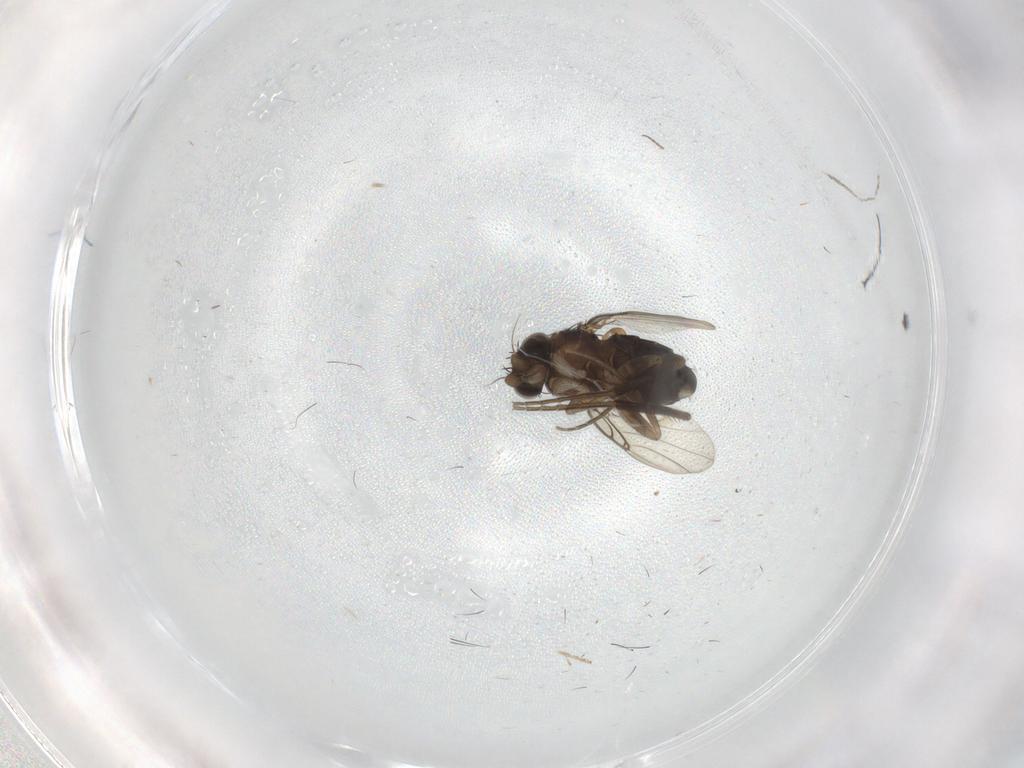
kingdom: Animalia
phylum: Arthropoda
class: Insecta
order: Diptera
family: Phoridae
